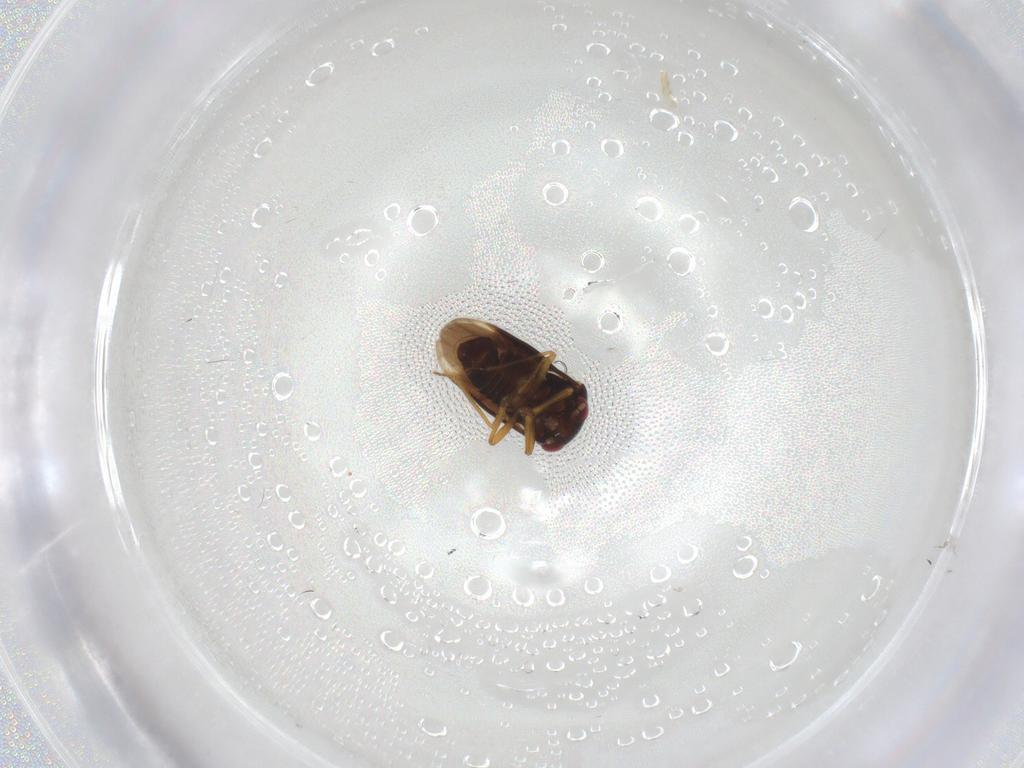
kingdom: Animalia
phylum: Arthropoda
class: Insecta
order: Hemiptera
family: Schizopteridae
